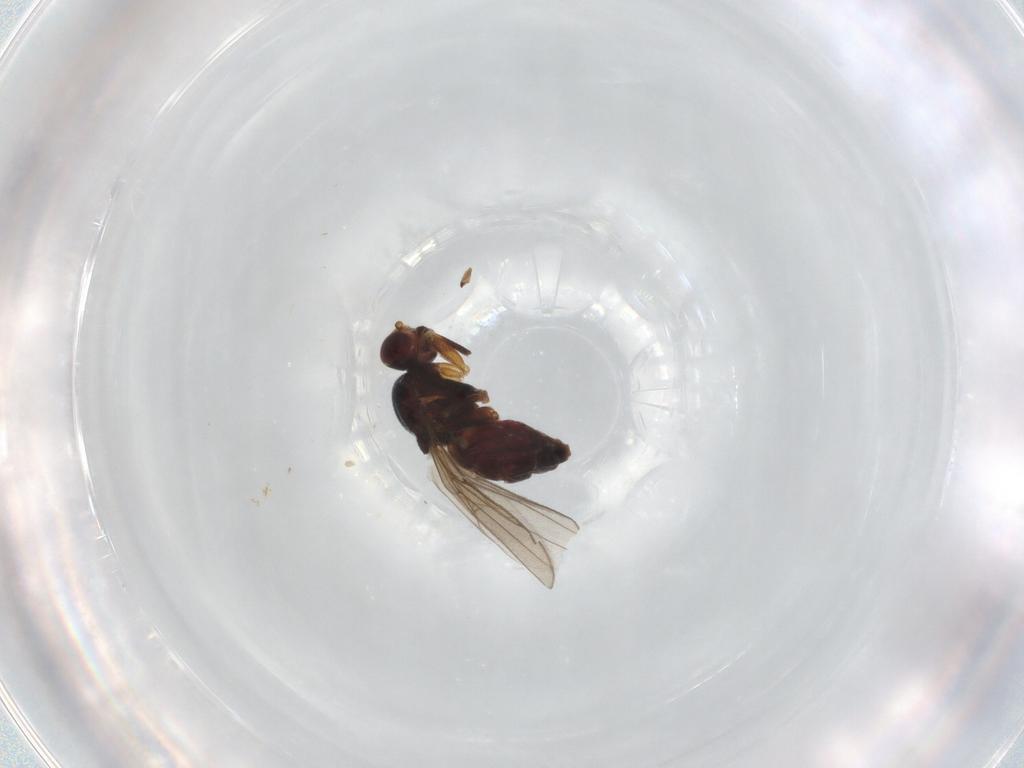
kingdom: Animalia
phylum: Arthropoda
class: Insecta
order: Diptera
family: Chloropidae
